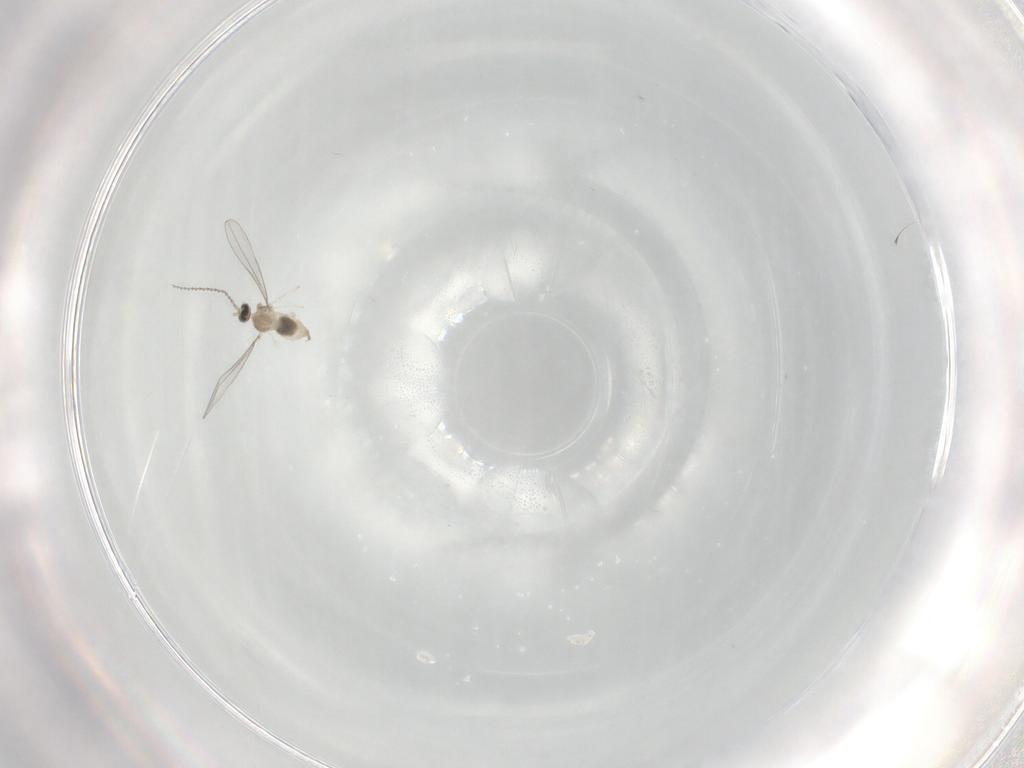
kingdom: Animalia
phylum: Arthropoda
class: Insecta
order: Diptera
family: Cecidomyiidae
